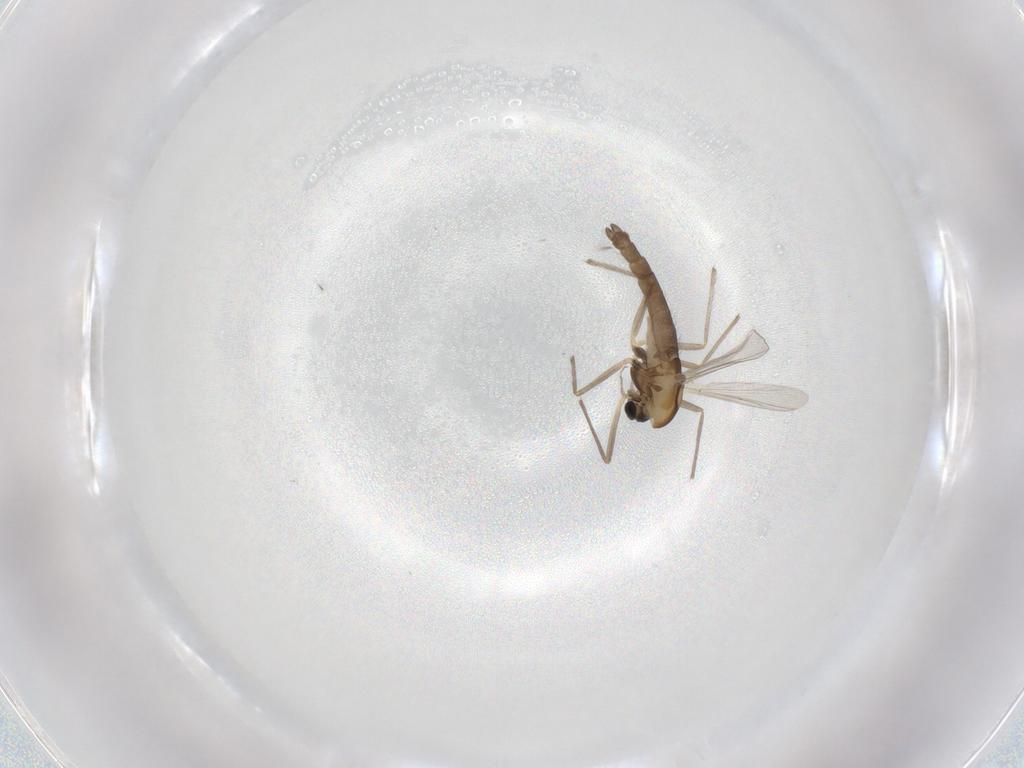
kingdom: Animalia
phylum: Arthropoda
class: Insecta
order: Diptera
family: Chironomidae
